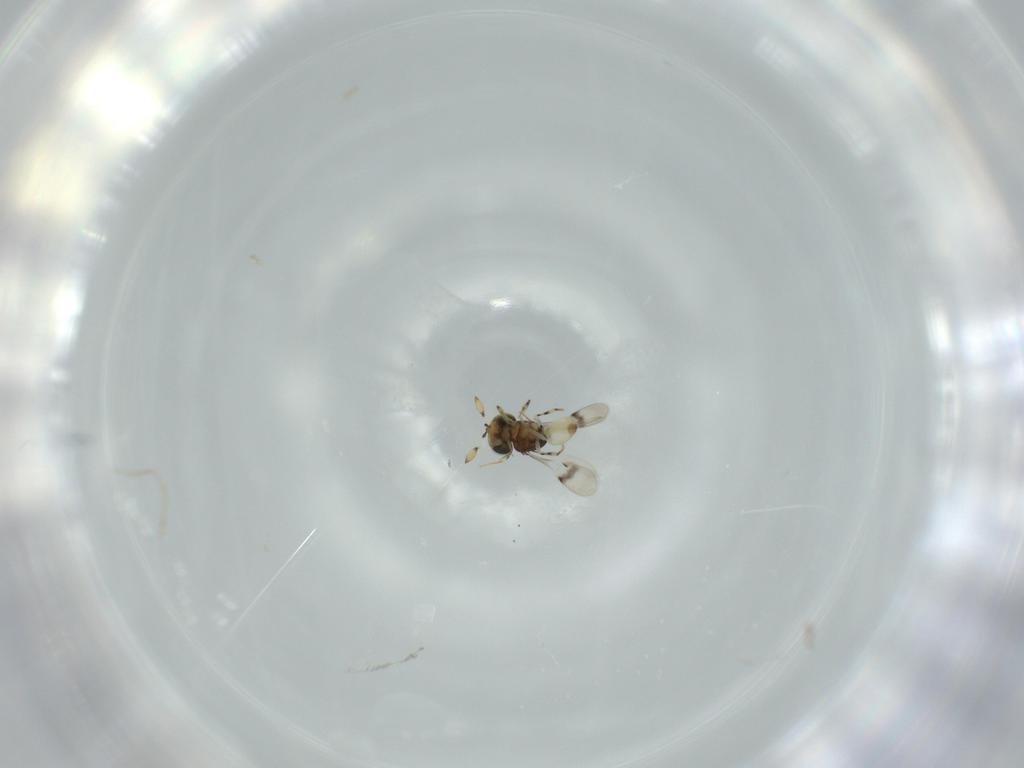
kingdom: Animalia
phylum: Arthropoda
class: Insecta
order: Hymenoptera
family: Scelionidae
